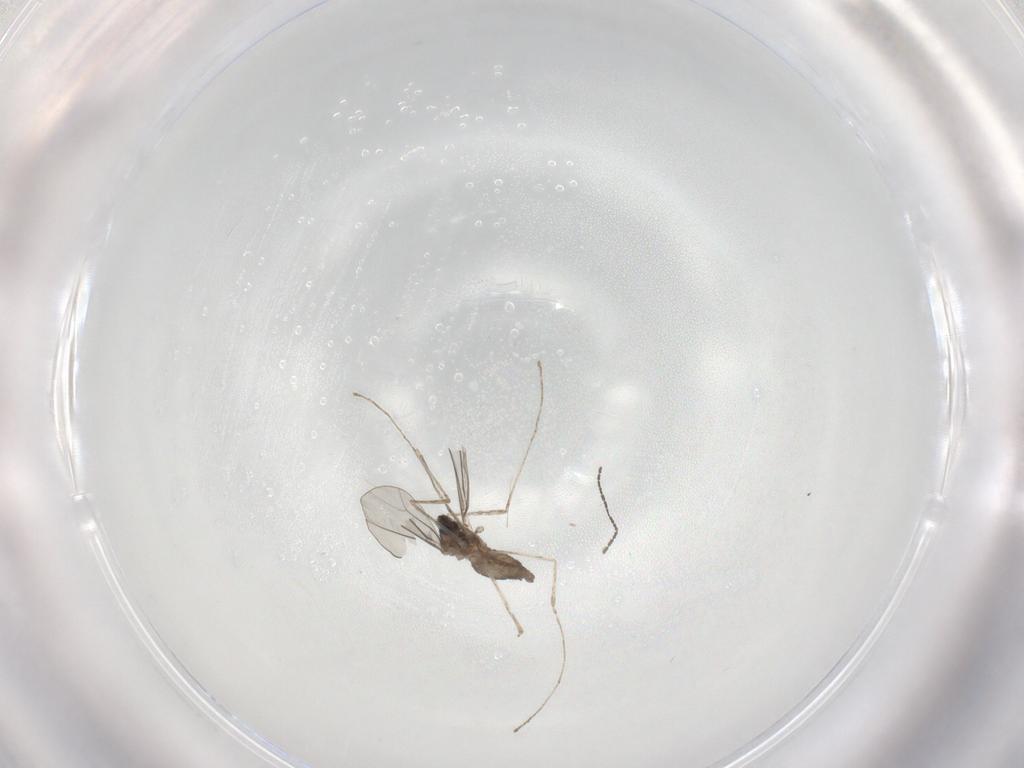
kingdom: Animalia
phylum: Arthropoda
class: Insecta
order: Diptera
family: Cecidomyiidae
